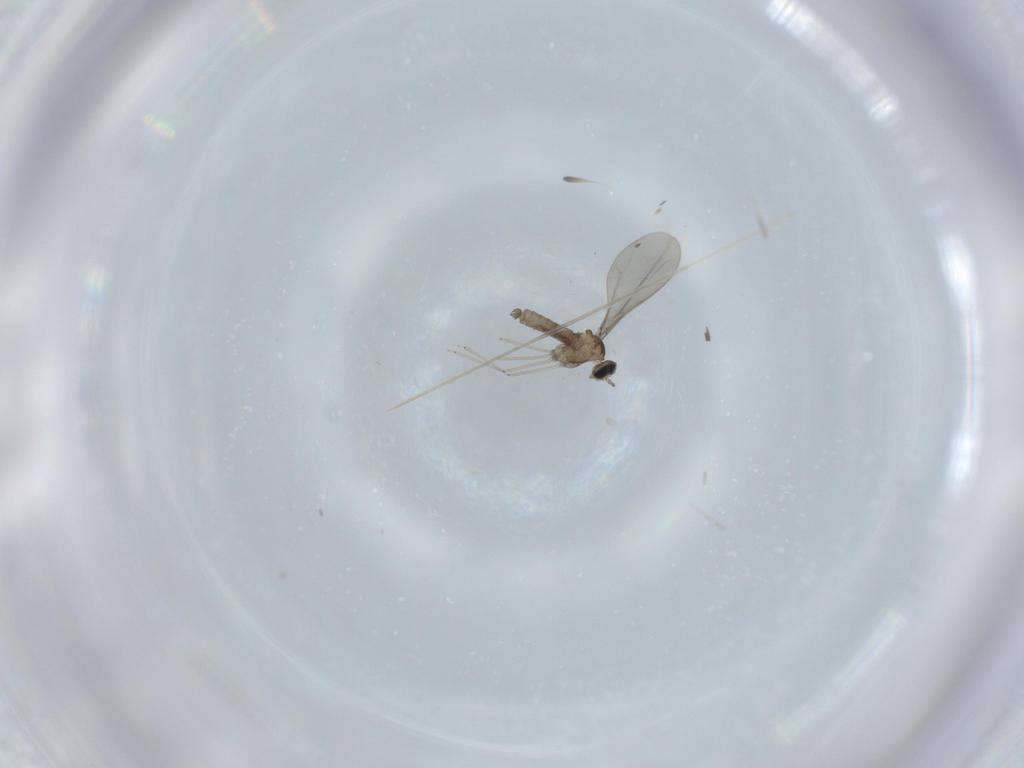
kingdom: Animalia
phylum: Arthropoda
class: Insecta
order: Diptera
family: Cecidomyiidae
